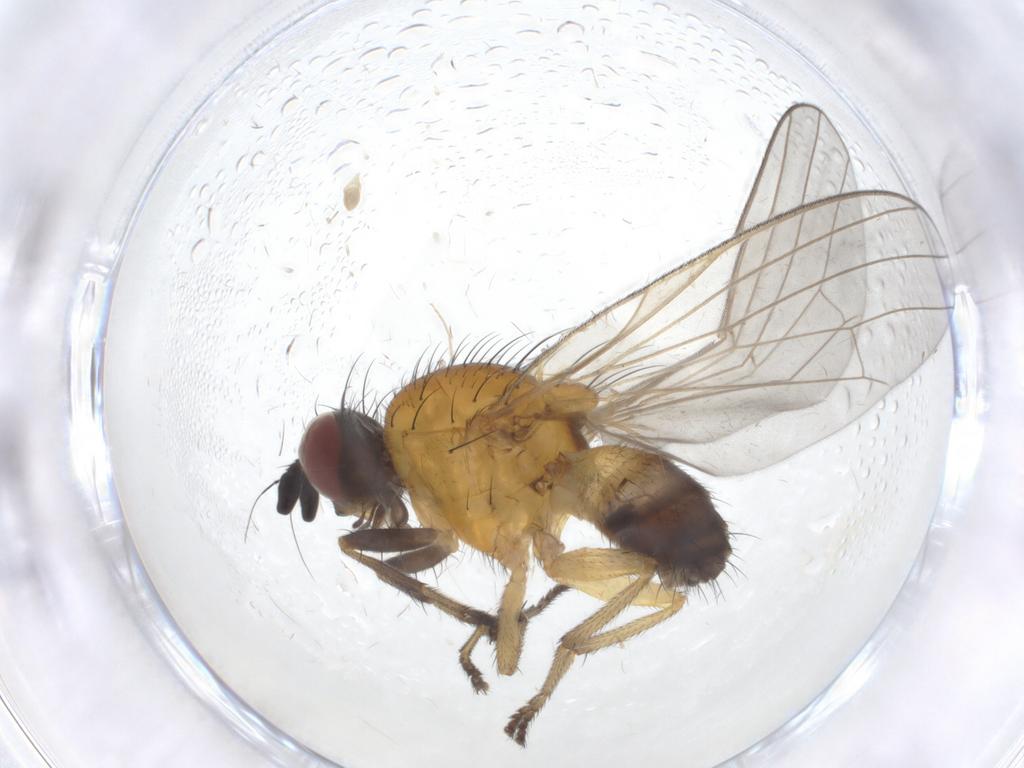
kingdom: Animalia
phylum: Arthropoda
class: Insecta
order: Diptera
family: Chironomidae
